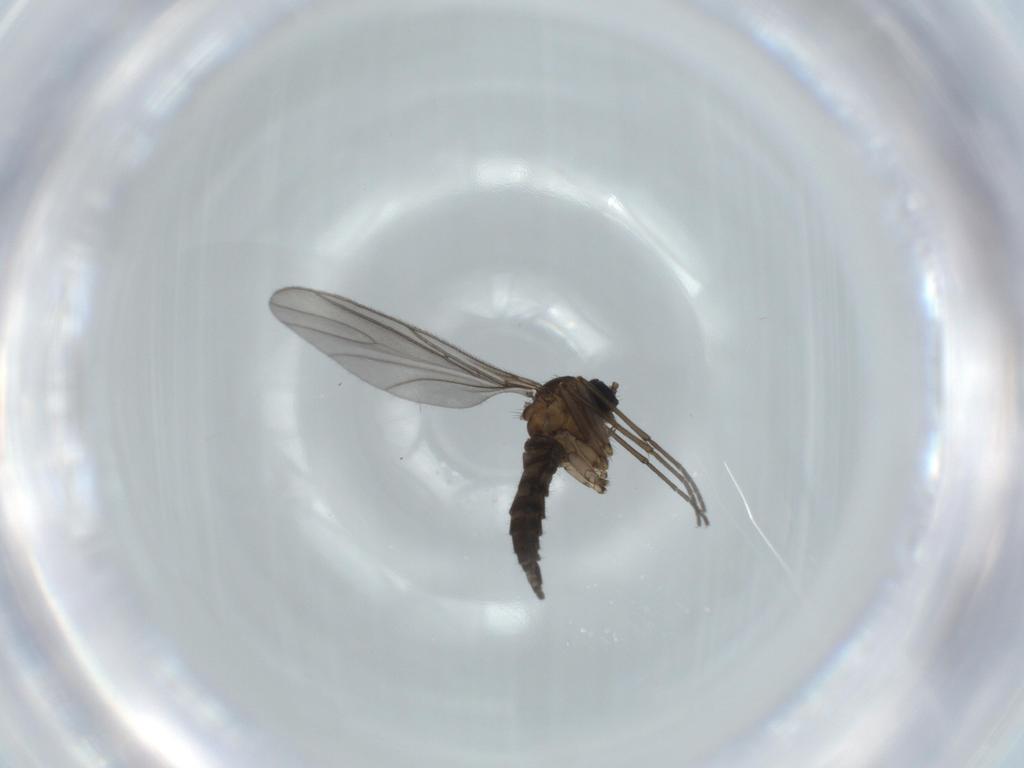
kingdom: Animalia
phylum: Arthropoda
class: Insecta
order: Diptera
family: Sciaridae
